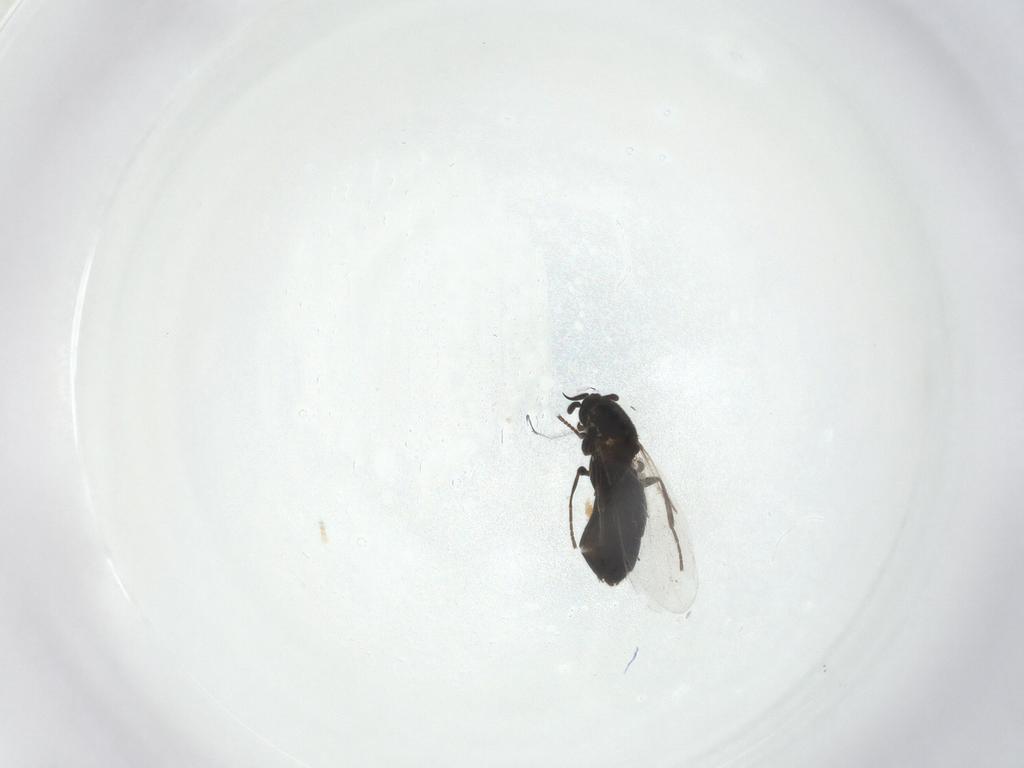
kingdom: Animalia
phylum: Arthropoda
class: Insecta
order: Diptera
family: Scatopsidae
